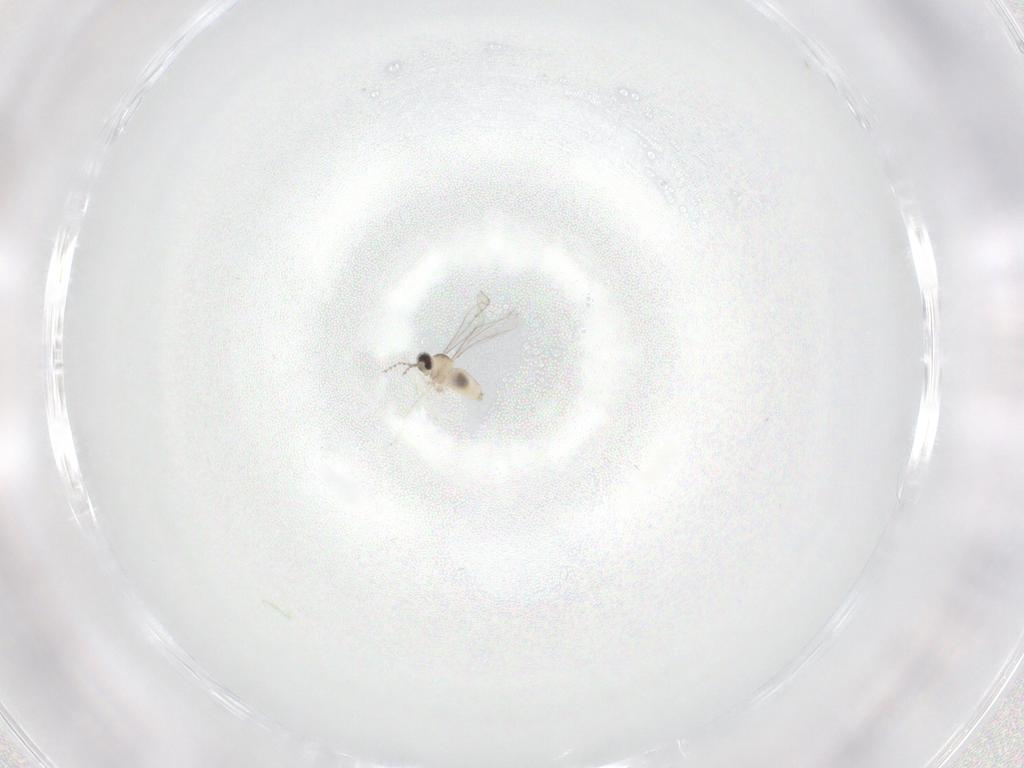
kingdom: Animalia
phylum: Arthropoda
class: Insecta
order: Diptera
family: Cecidomyiidae
